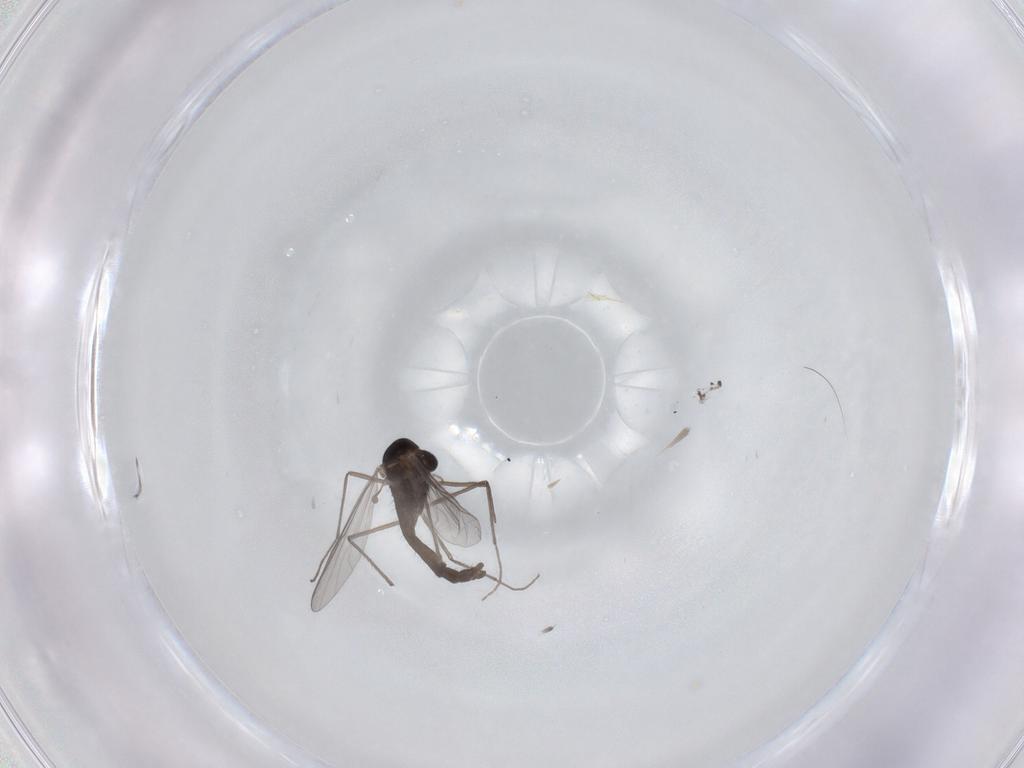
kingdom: Animalia
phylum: Arthropoda
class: Insecta
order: Diptera
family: Chironomidae
